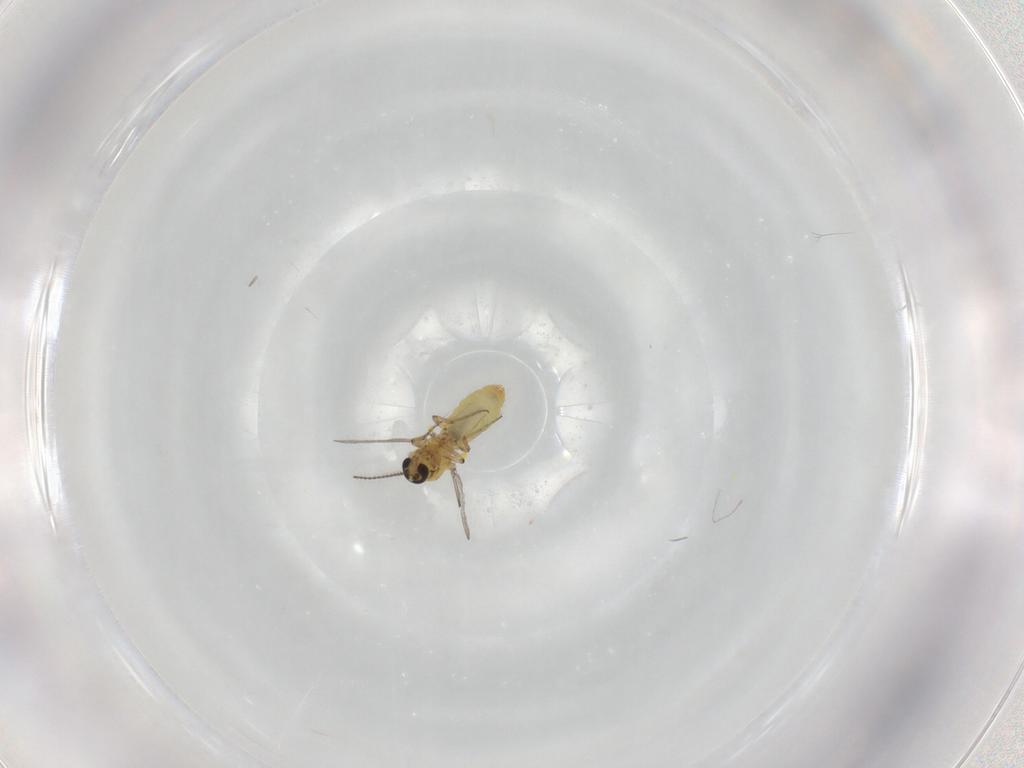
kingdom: Animalia
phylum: Arthropoda
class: Insecta
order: Diptera
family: Ceratopogonidae
